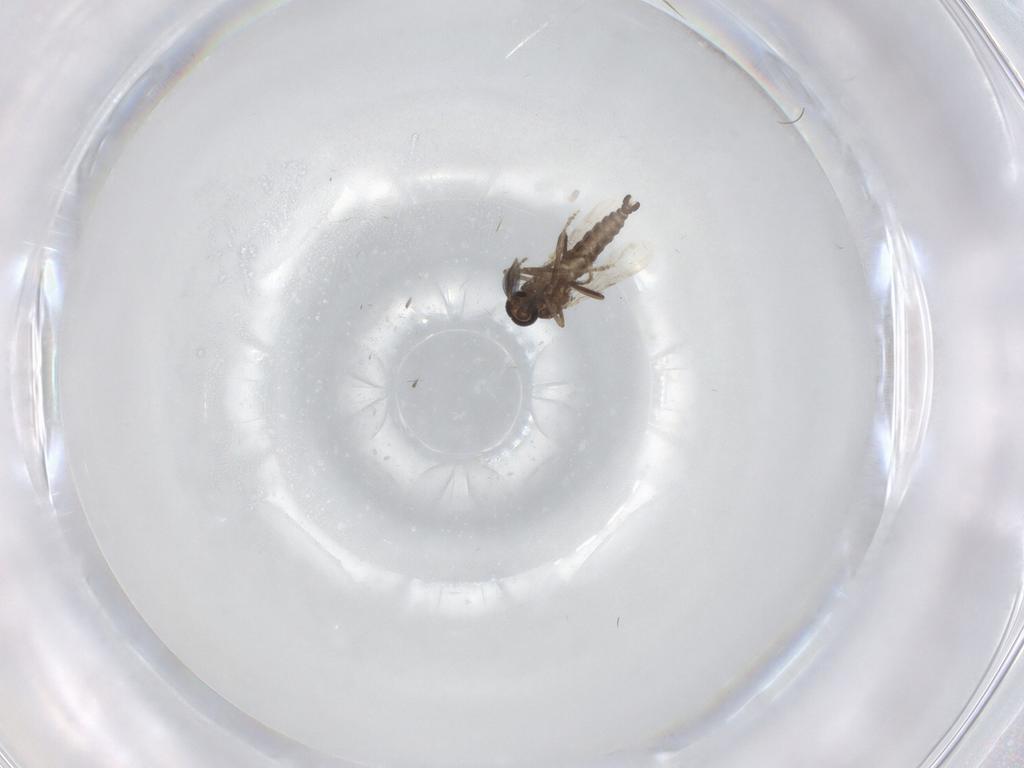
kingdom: Animalia
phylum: Arthropoda
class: Insecta
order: Diptera
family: Ceratopogonidae
